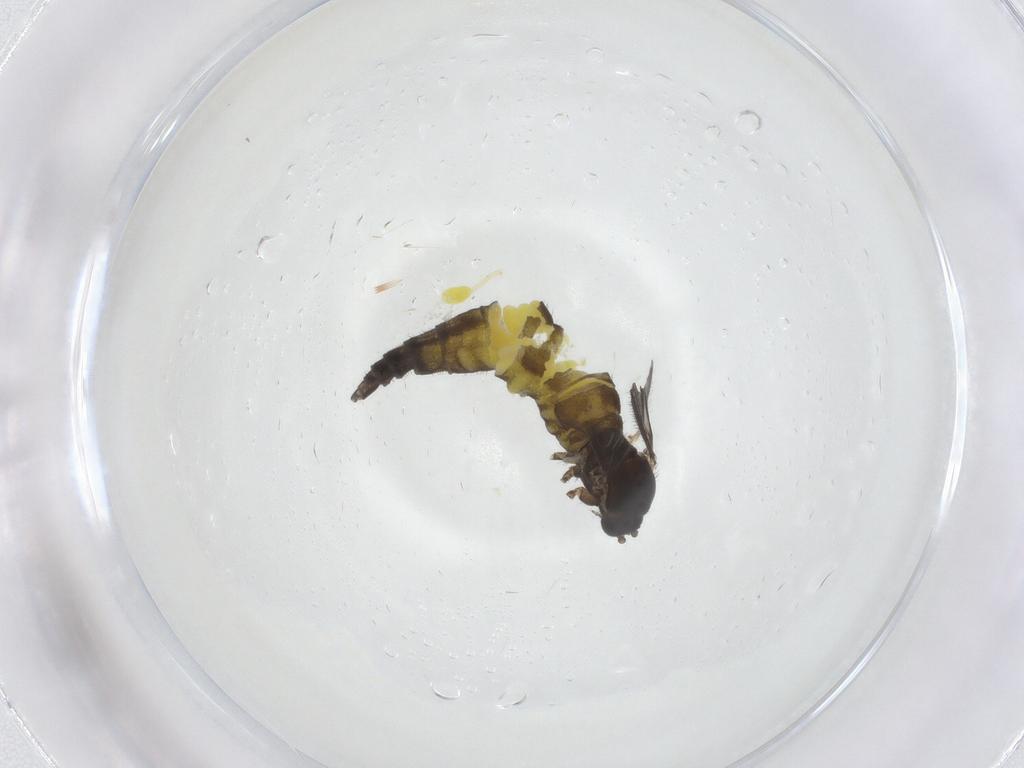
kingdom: Animalia
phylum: Arthropoda
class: Insecta
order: Diptera
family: Sciaridae
